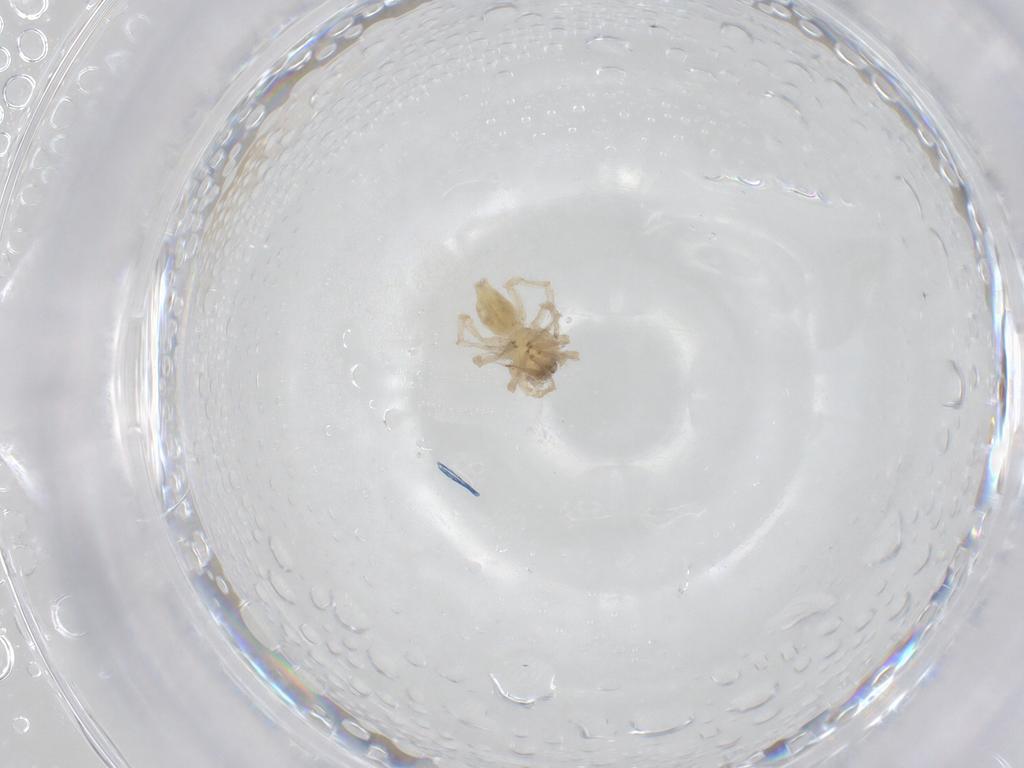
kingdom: Animalia
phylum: Arthropoda
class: Arachnida
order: Araneae
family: Clubionidae
